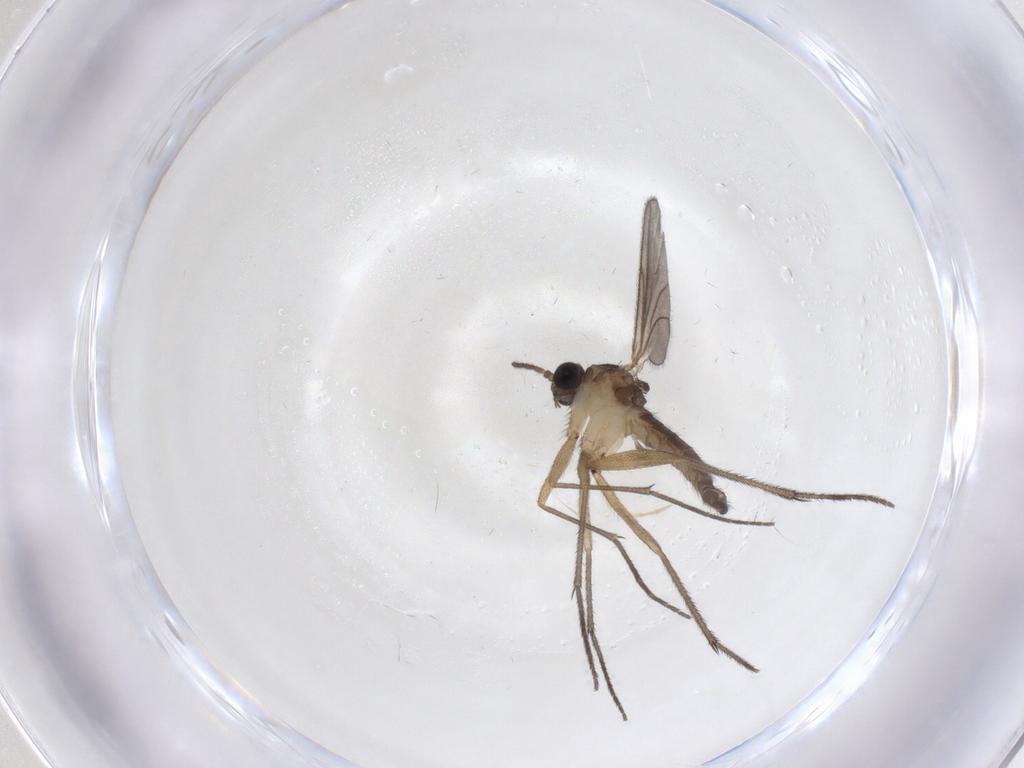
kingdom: Animalia
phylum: Arthropoda
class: Insecta
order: Diptera
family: Sciaridae
